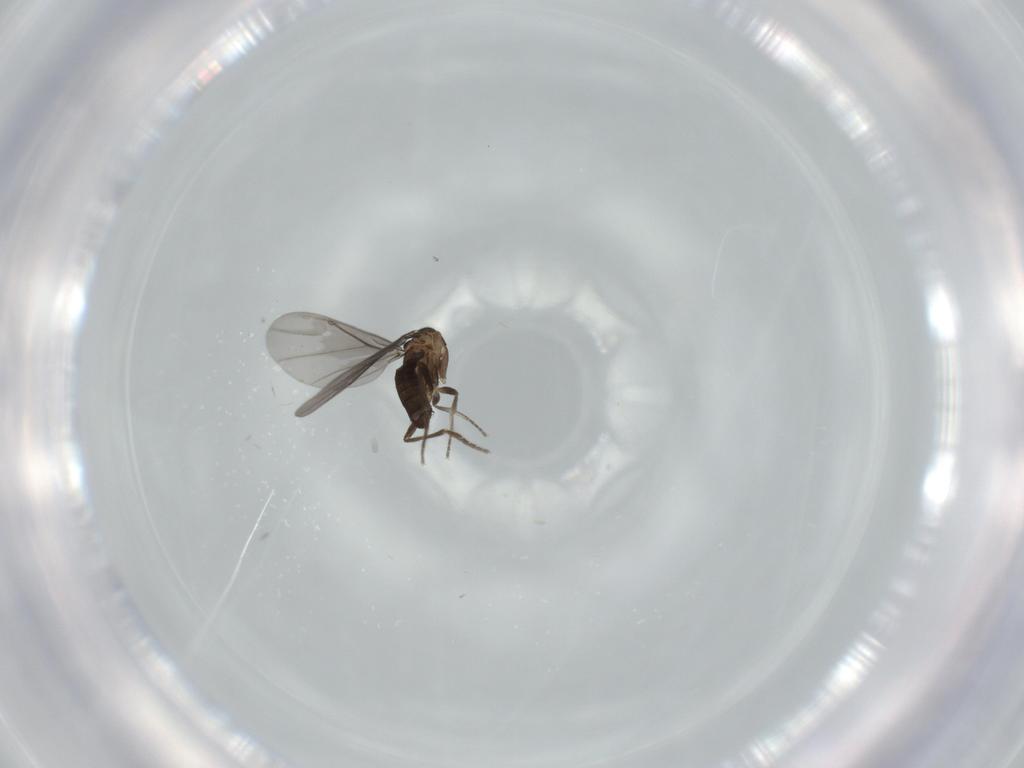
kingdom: Animalia
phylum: Arthropoda
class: Insecta
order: Diptera
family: Phoridae
